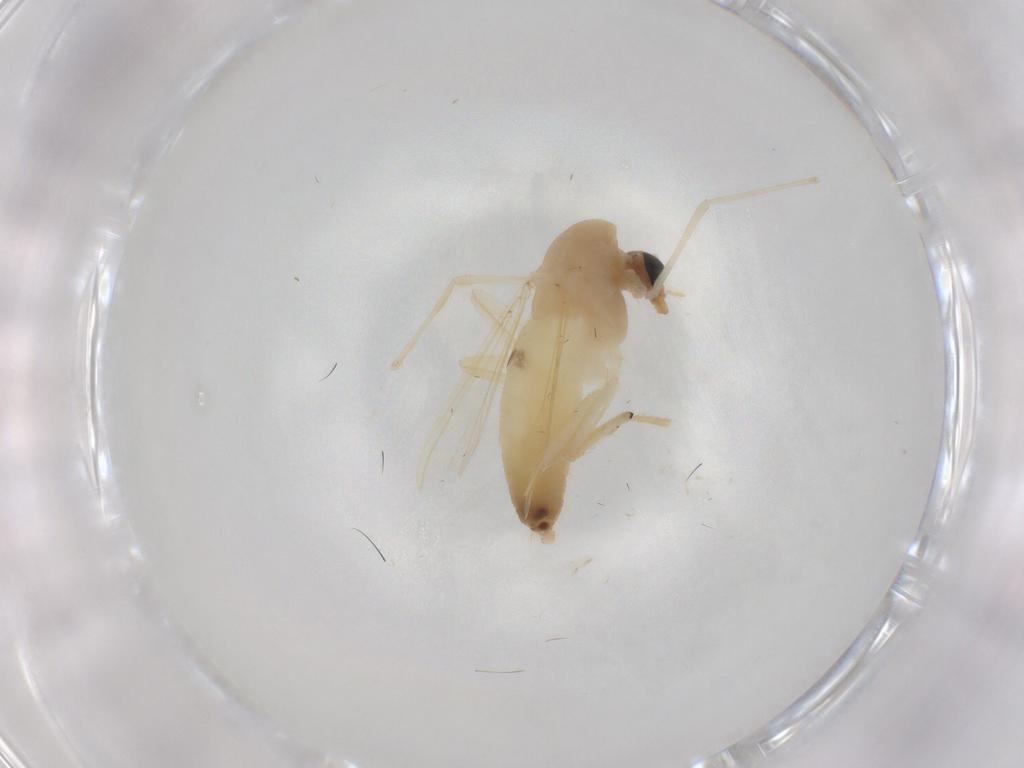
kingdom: Animalia
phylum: Arthropoda
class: Insecta
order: Diptera
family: Chironomidae
